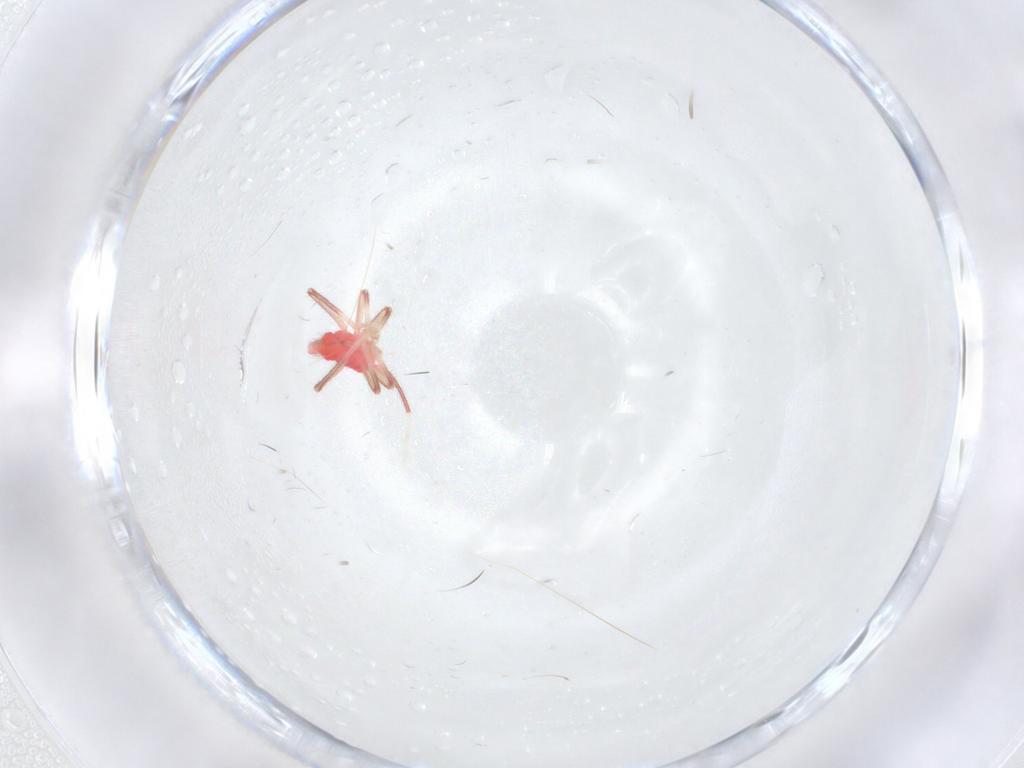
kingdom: Animalia
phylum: Arthropoda
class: Insecta
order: Hemiptera
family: Miridae
